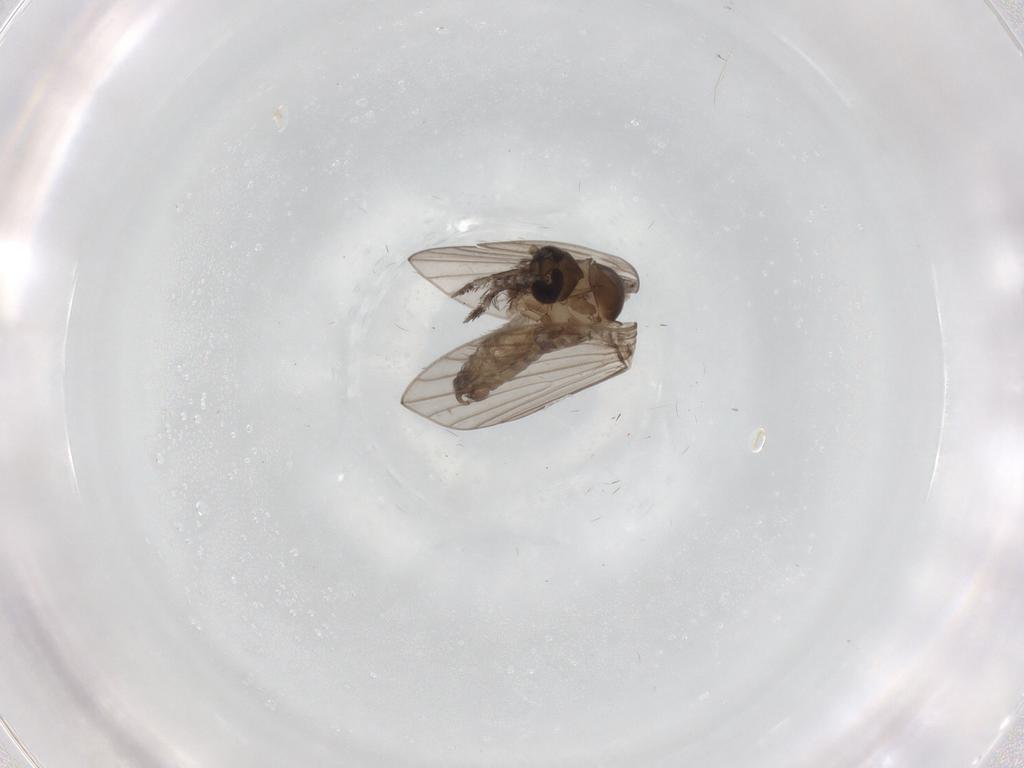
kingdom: Animalia
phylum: Arthropoda
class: Insecta
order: Diptera
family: Psychodidae
